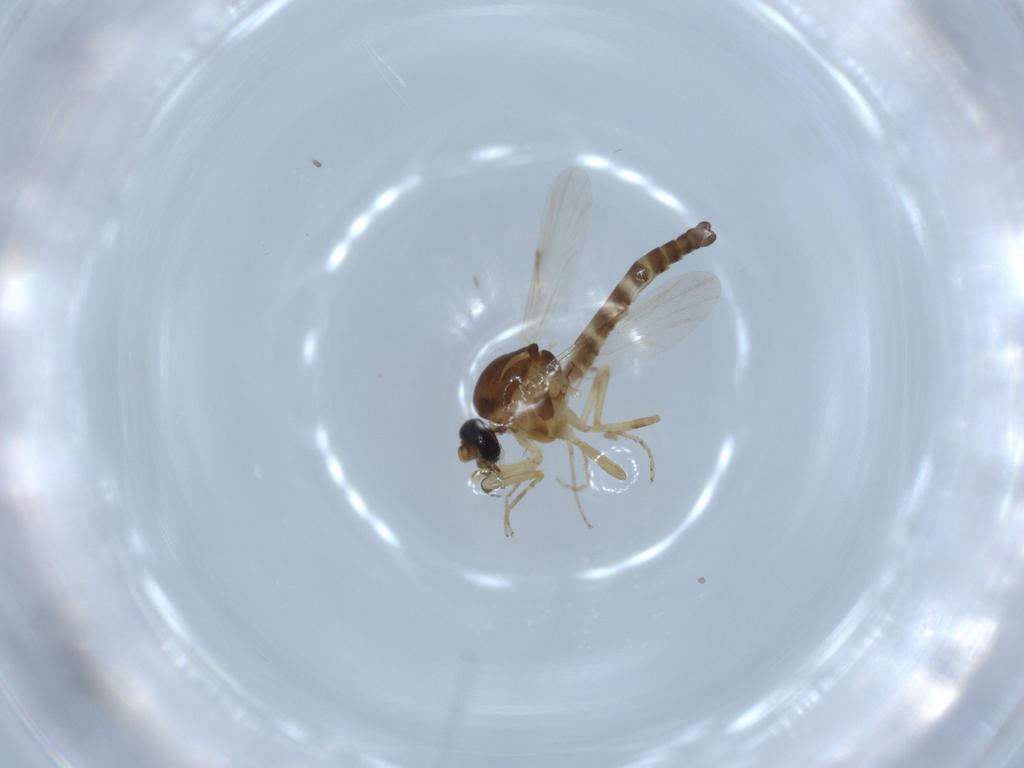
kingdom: Animalia
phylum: Arthropoda
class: Insecta
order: Diptera
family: Ceratopogonidae
